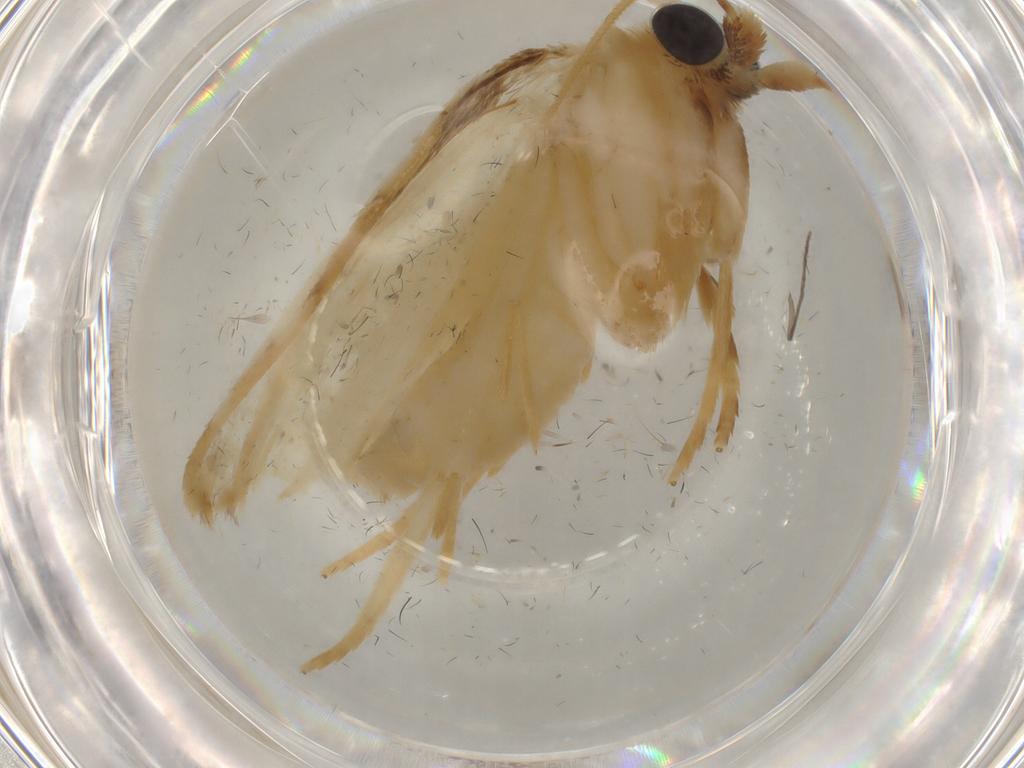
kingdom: Animalia
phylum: Arthropoda
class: Insecta
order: Lepidoptera
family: Psychidae
